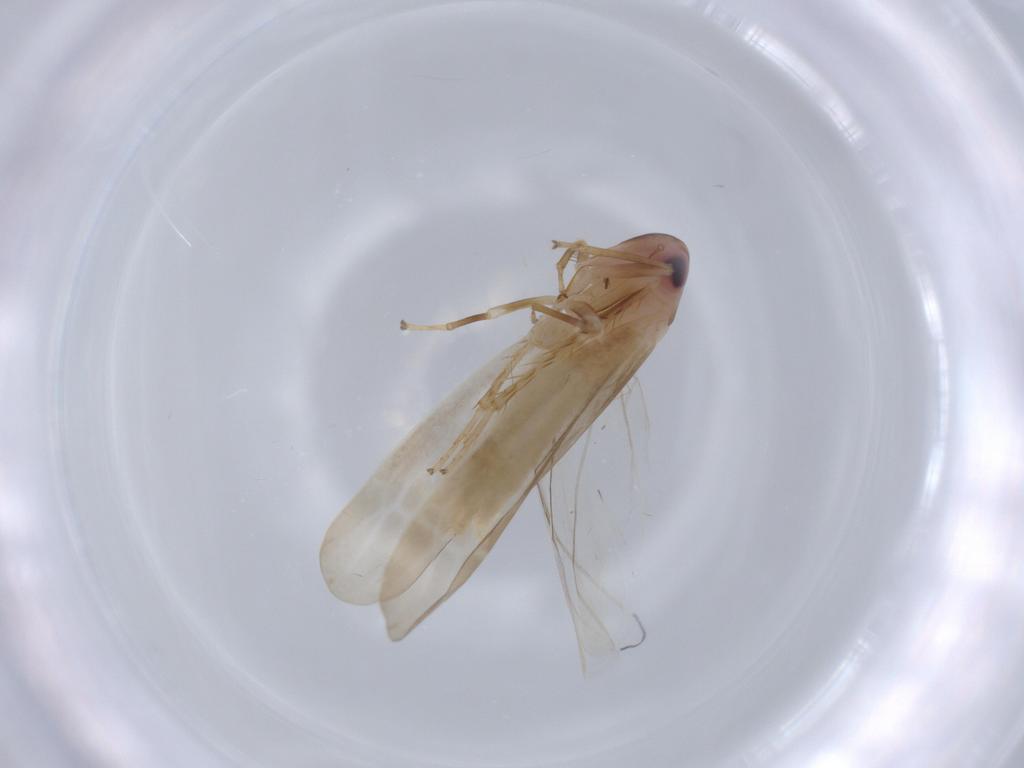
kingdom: Animalia
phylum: Arthropoda
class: Insecta
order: Hemiptera
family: Cicadellidae
